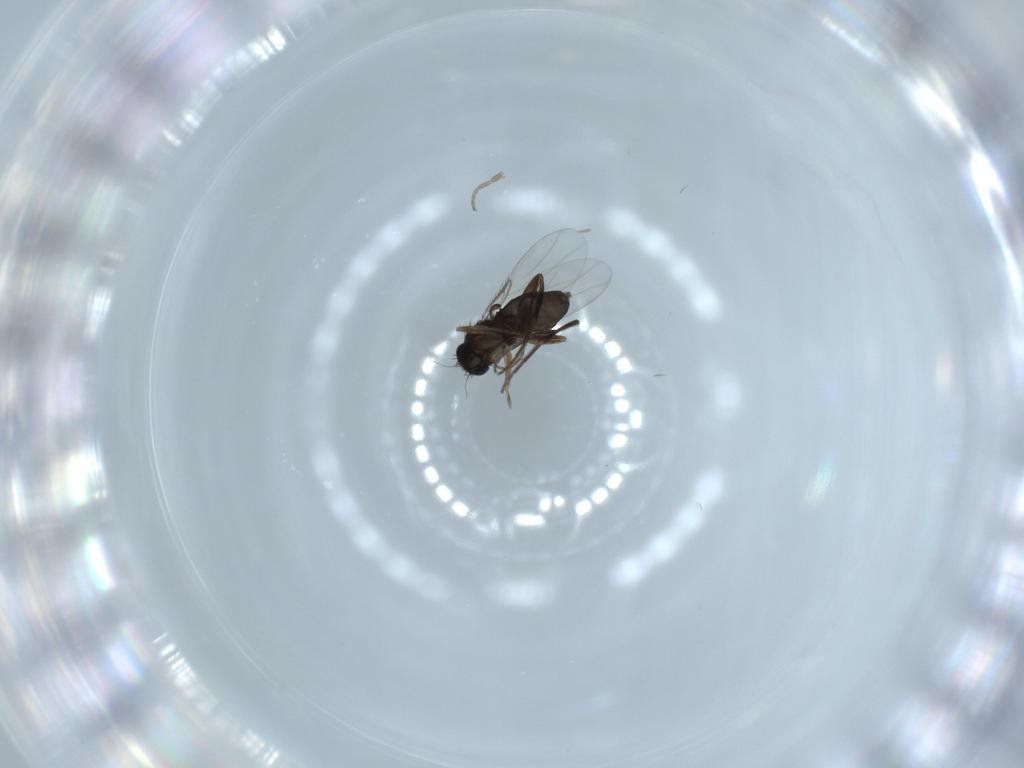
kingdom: Animalia
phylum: Arthropoda
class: Insecta
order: Diptera
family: Phoridae
